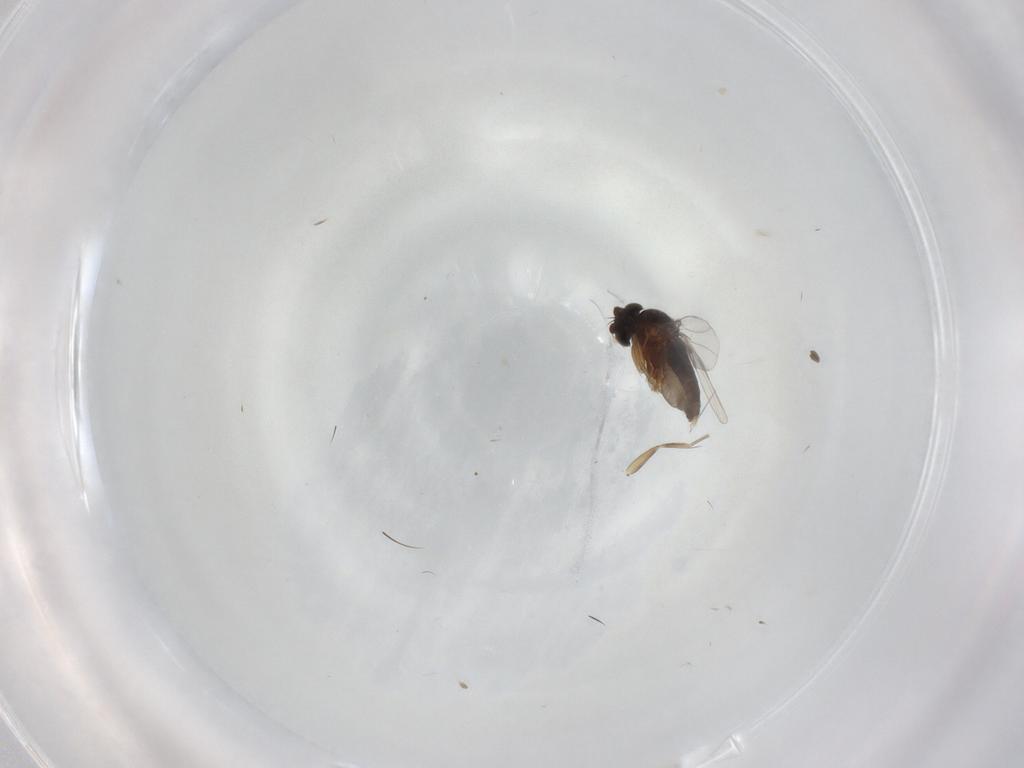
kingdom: Animalia
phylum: Arthropoda
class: Insecta
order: Diptera
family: Phoridae
